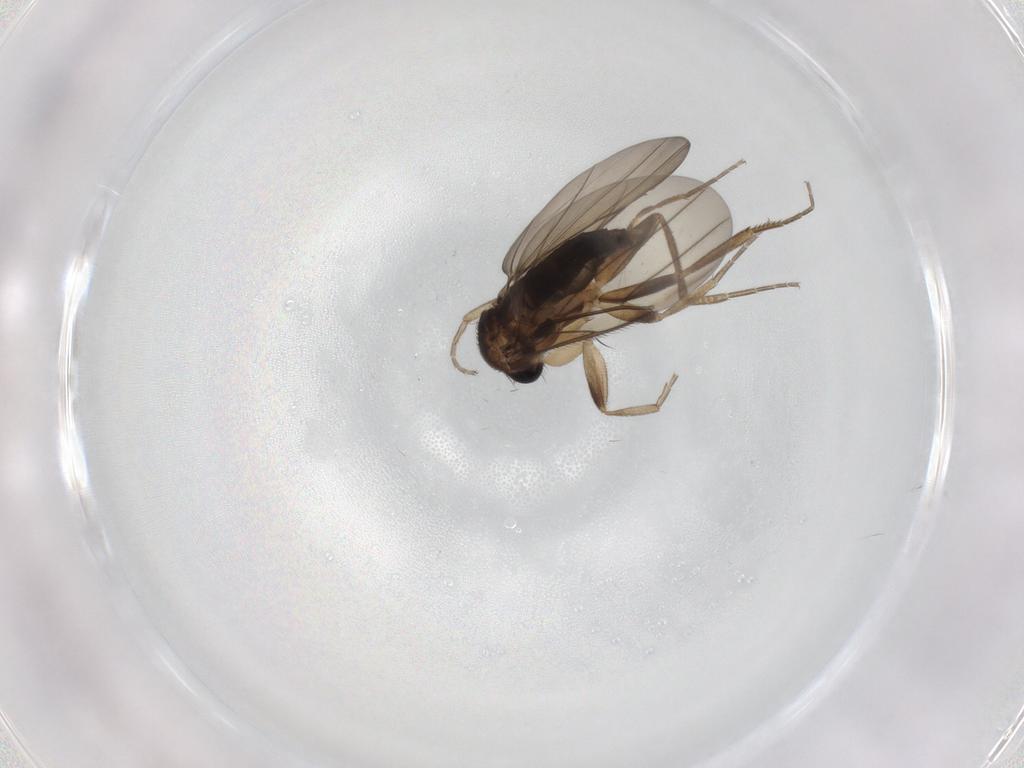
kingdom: Animalia
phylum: Arthropoda
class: Insecta
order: Diptera
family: Phoridae
